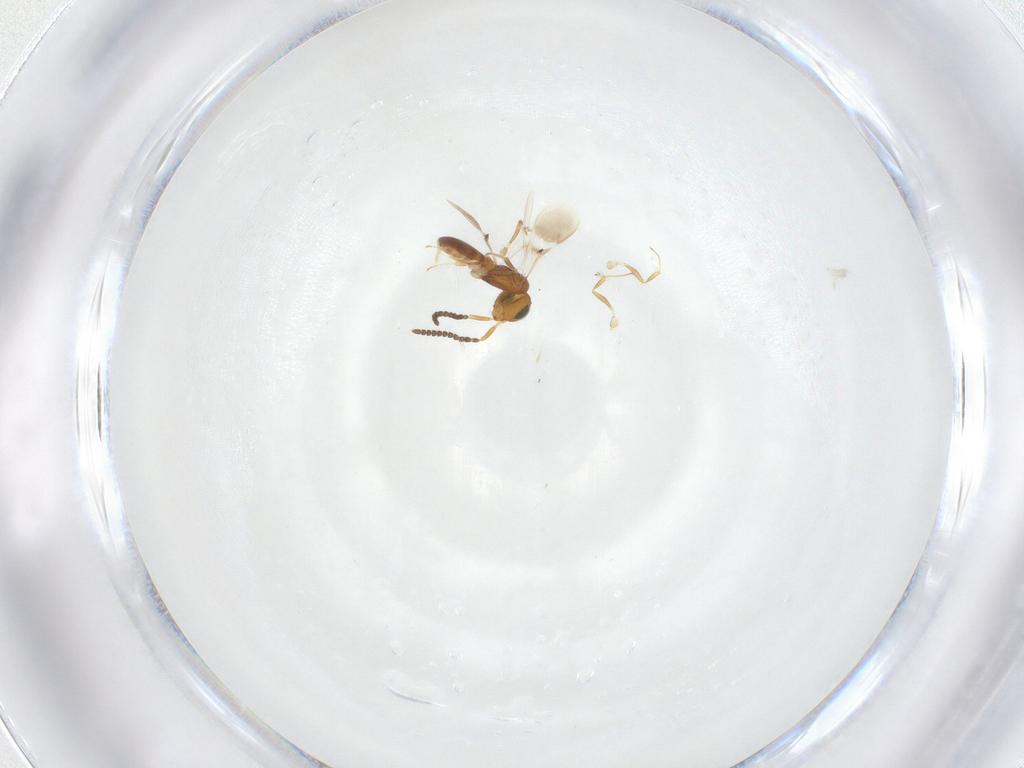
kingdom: Animalia
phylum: Arthropoda
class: Insecta
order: Hymenoptera
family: Scelionidae
